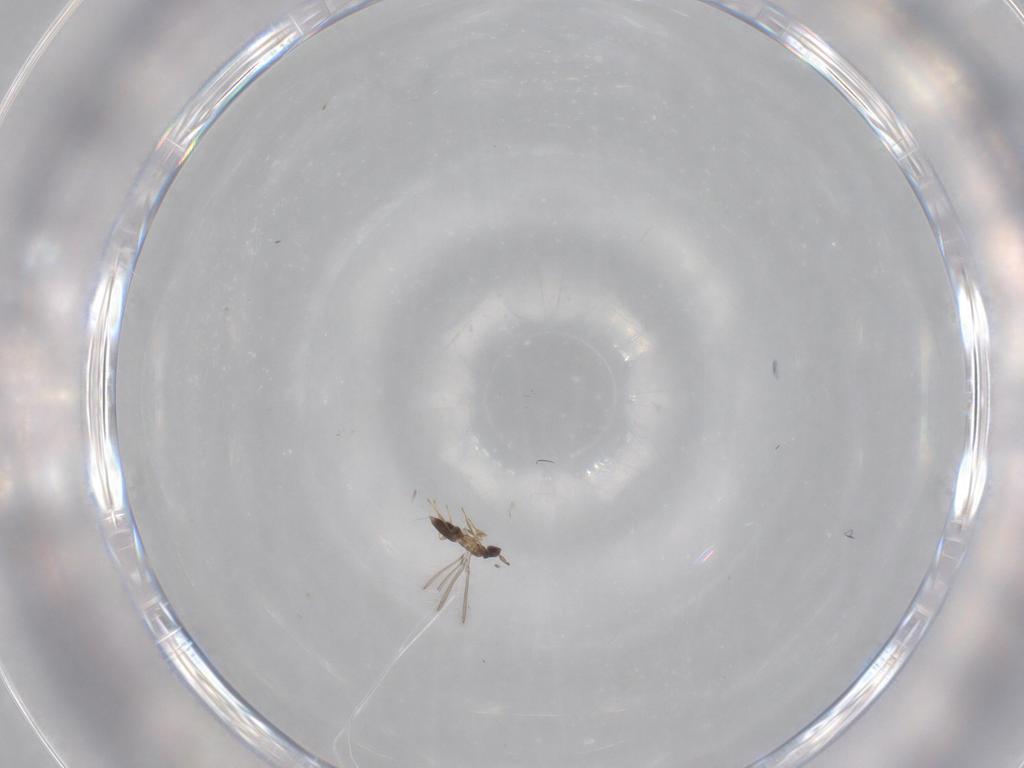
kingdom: Animalia
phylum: Arthropoda
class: Insecta
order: Hymenoptera
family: Mymaridae
